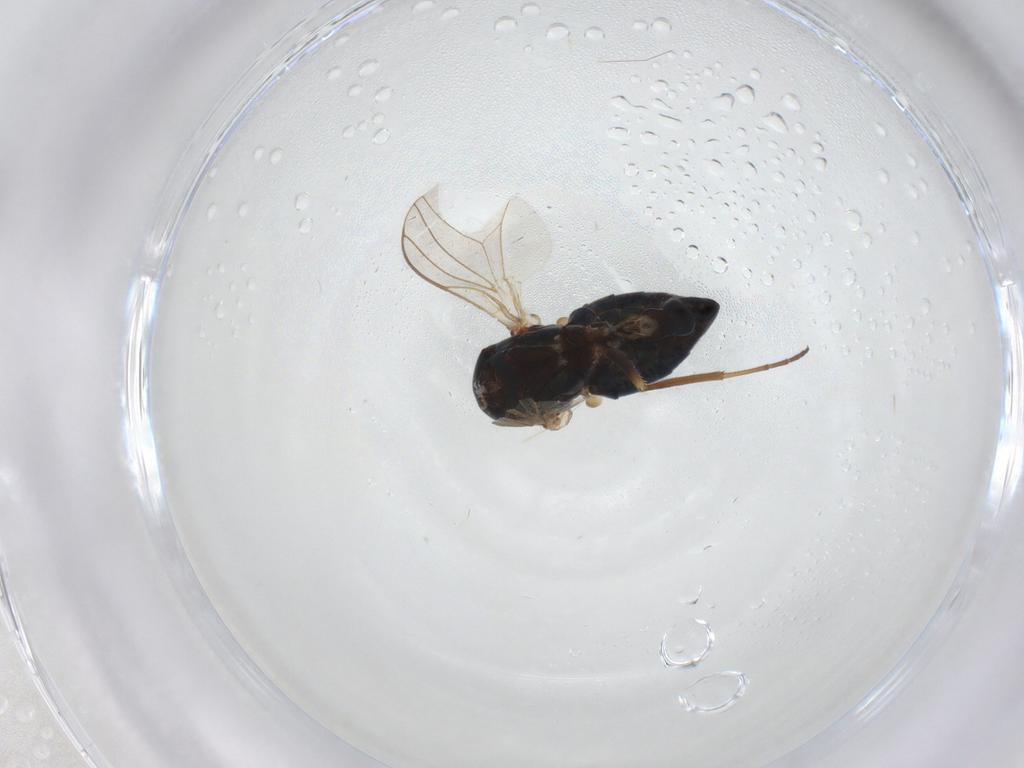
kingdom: Animalia
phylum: Arthropoda
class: Insecta
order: Diptera
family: Dolichopodidae
